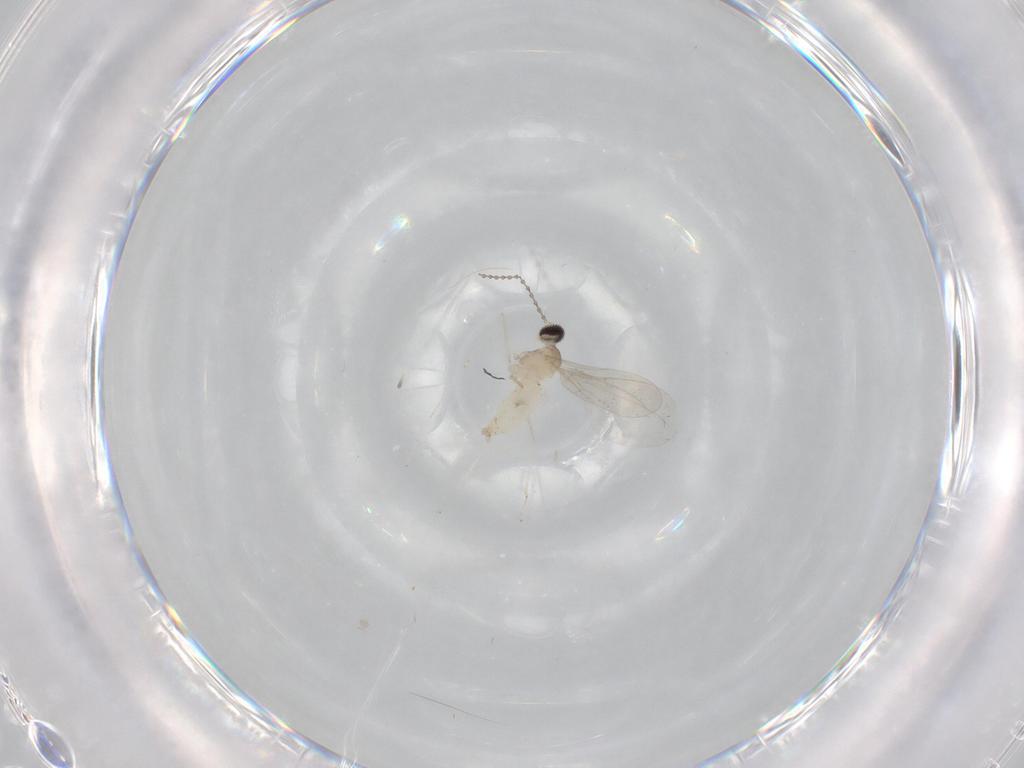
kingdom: Animalia
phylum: Arthropoda
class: Insecta
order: Diptera
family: Cecidomyiidae
